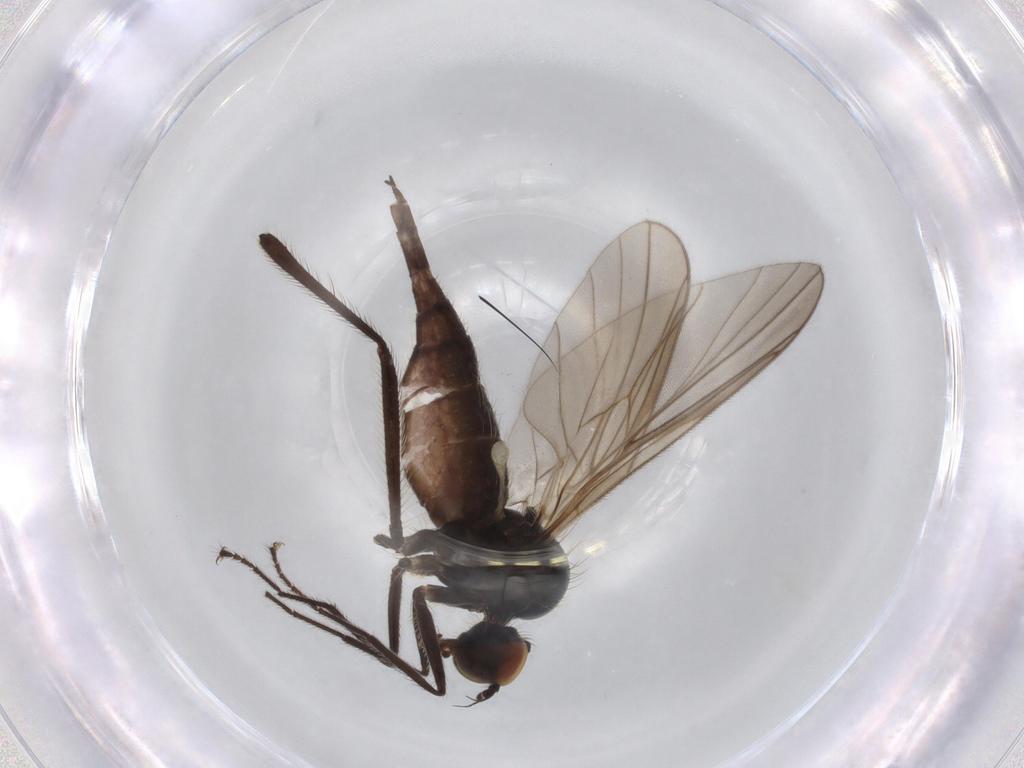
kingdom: Animalia
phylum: Arthropoda
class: Insecta
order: Diptera
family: Hybotidae
